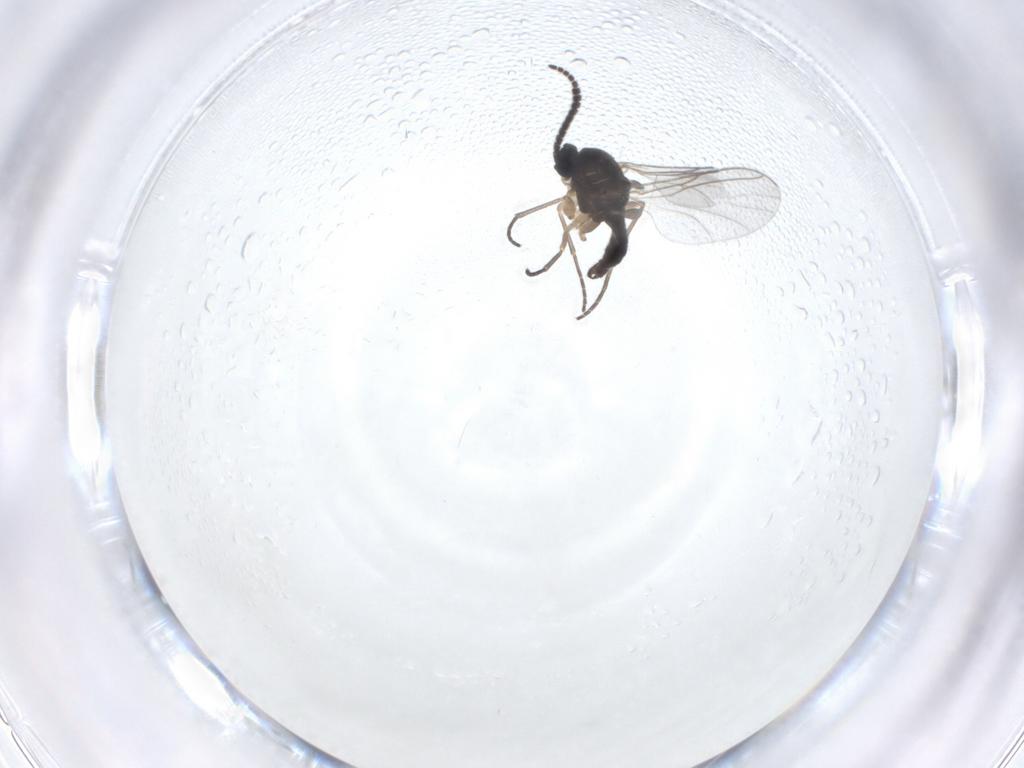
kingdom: Animalia
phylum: Arthropoda
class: Insecta
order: Diptera
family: Sciaridae
